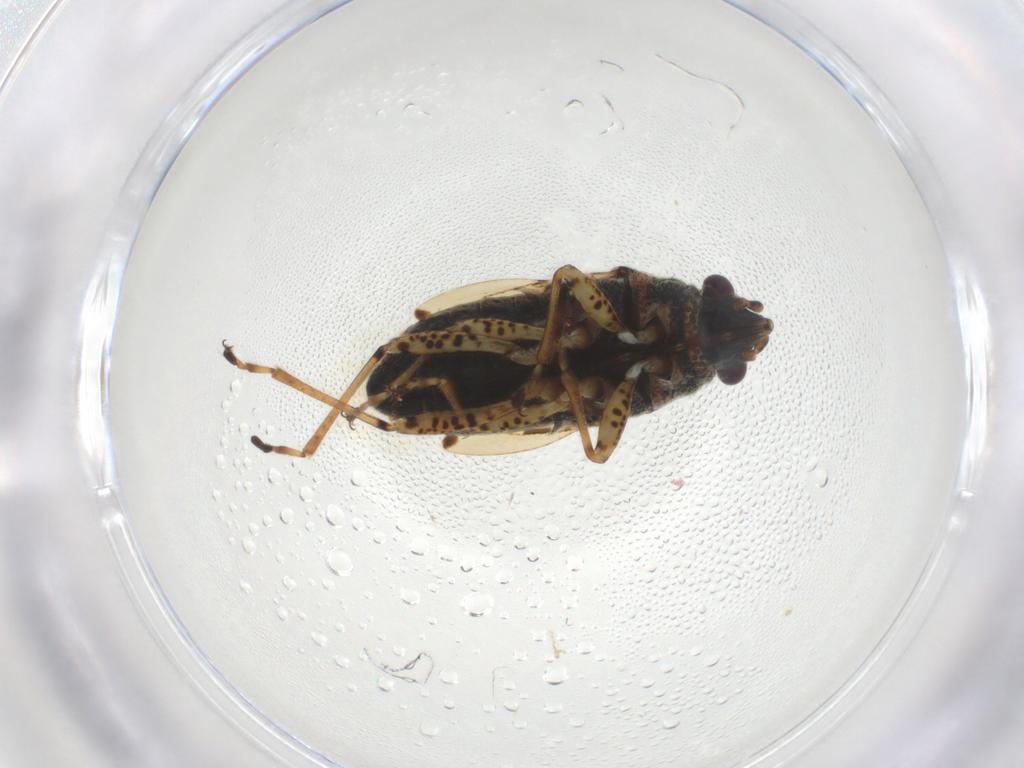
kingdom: Animalia
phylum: Arthropoda
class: Insecta
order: Hemiptera
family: Lygaeidae
